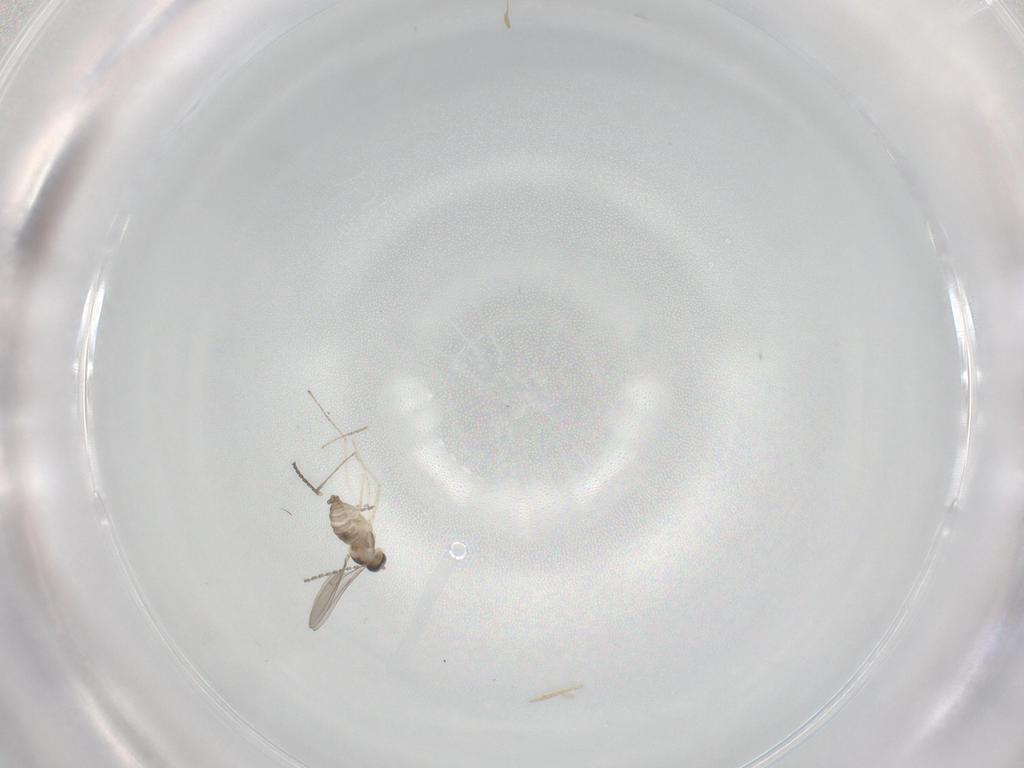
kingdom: Animalia
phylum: Arthropoda
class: Insecta
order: Diptera
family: Cecidomyiidae
